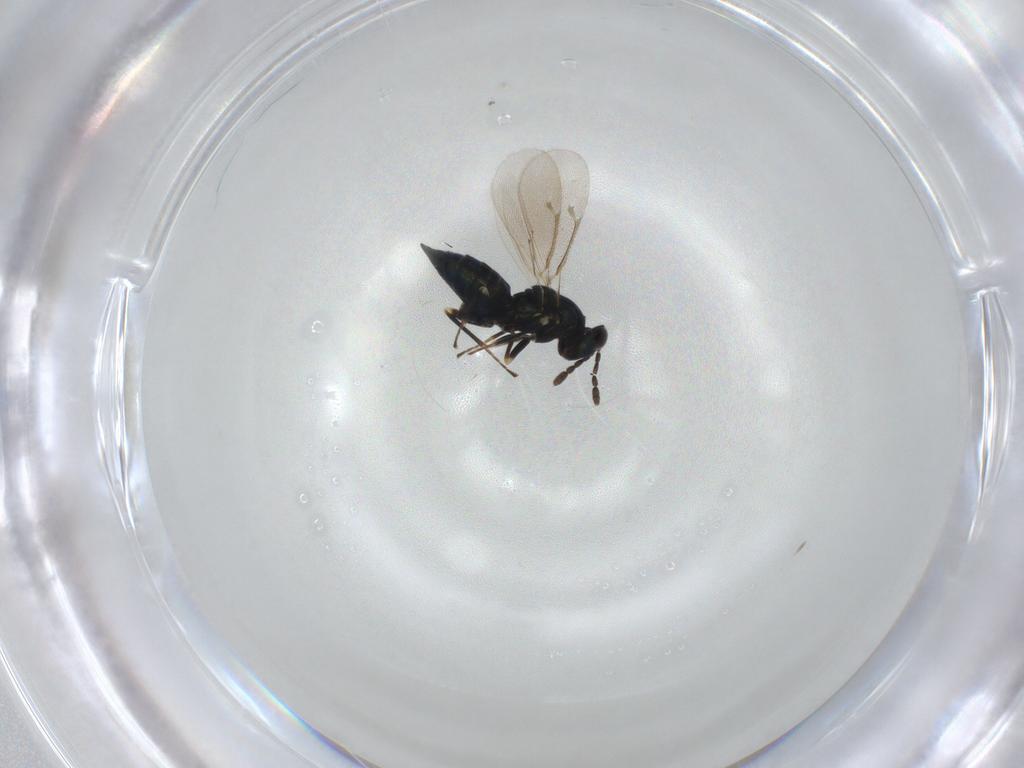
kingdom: Animalia
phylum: Arthropoda
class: Insecta
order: Hymenoptera
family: Eulophidae
